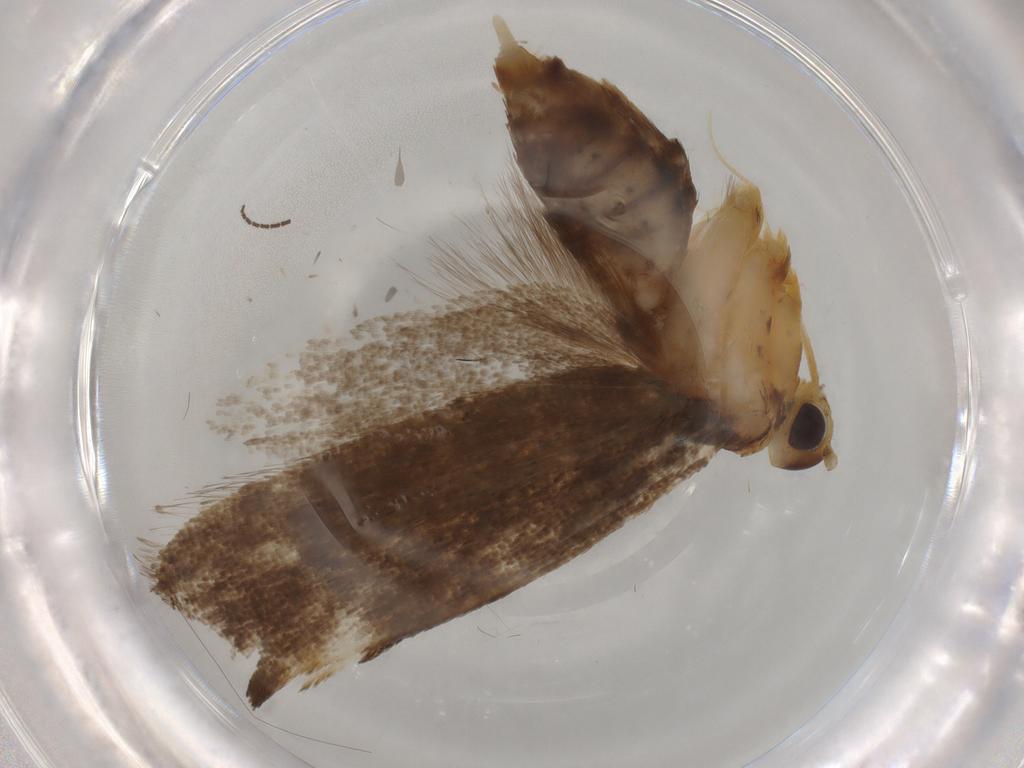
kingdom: Animalia
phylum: Arthropoda
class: Insecta
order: Lepidoptera
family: Lecithoceridae
